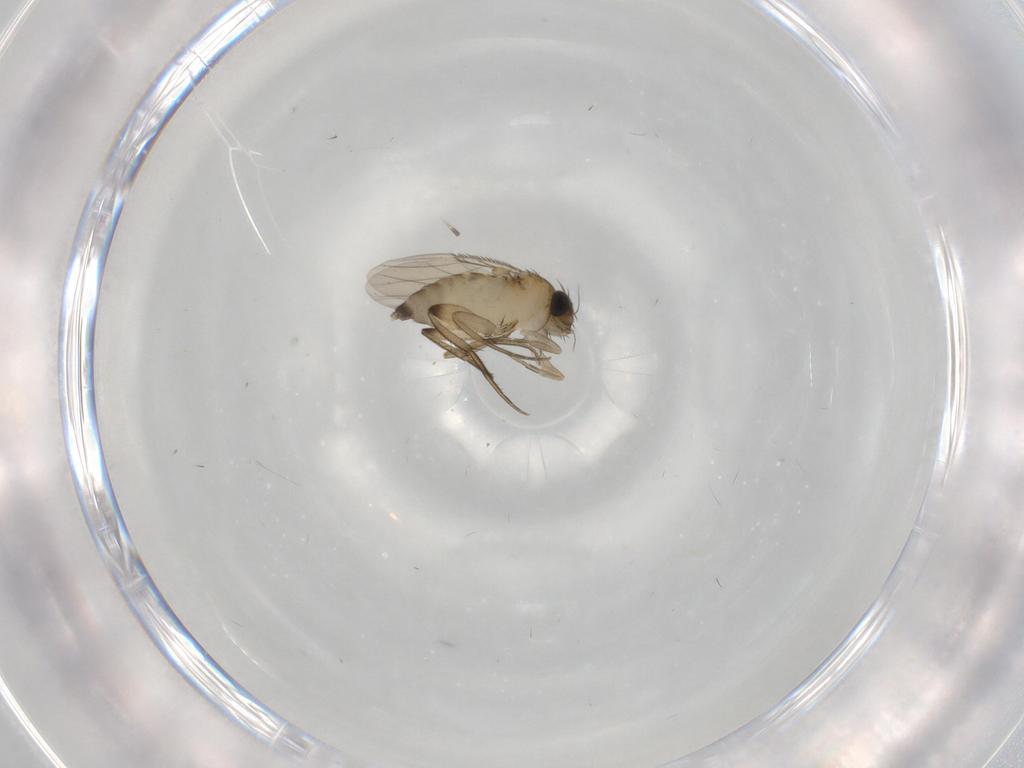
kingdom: Animalia
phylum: Arthropoda
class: Insecta
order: Diptera
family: Phoridae
